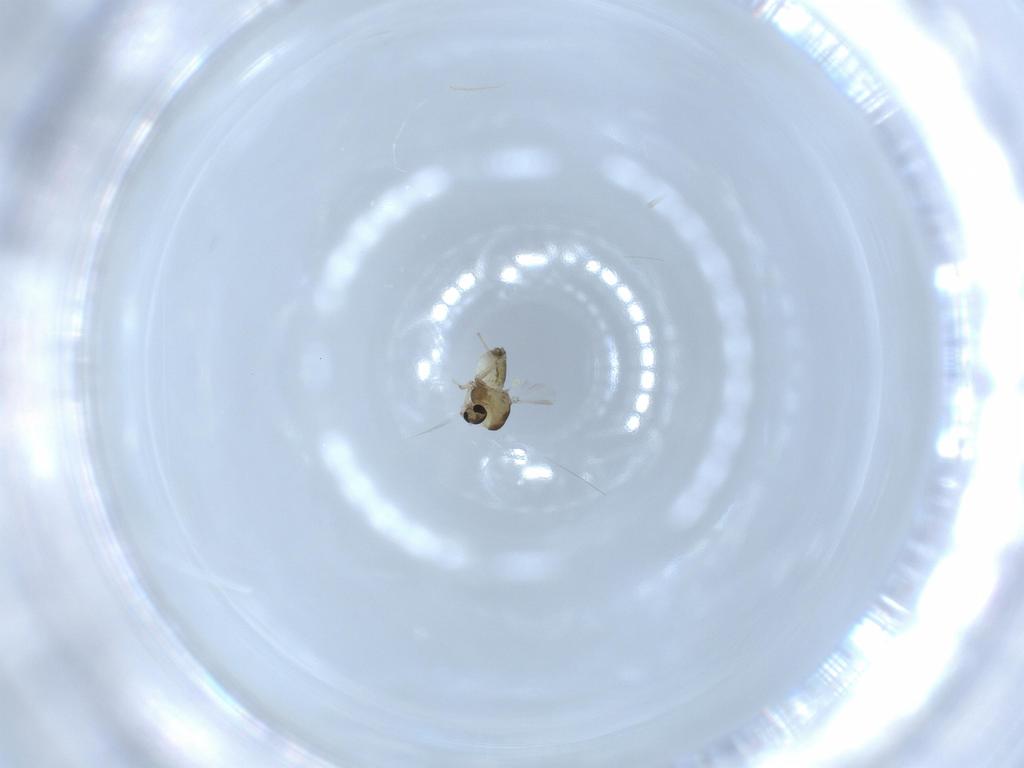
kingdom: Animalia
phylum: Arthropoda
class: Insecta
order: Diptera
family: Chironomidae
